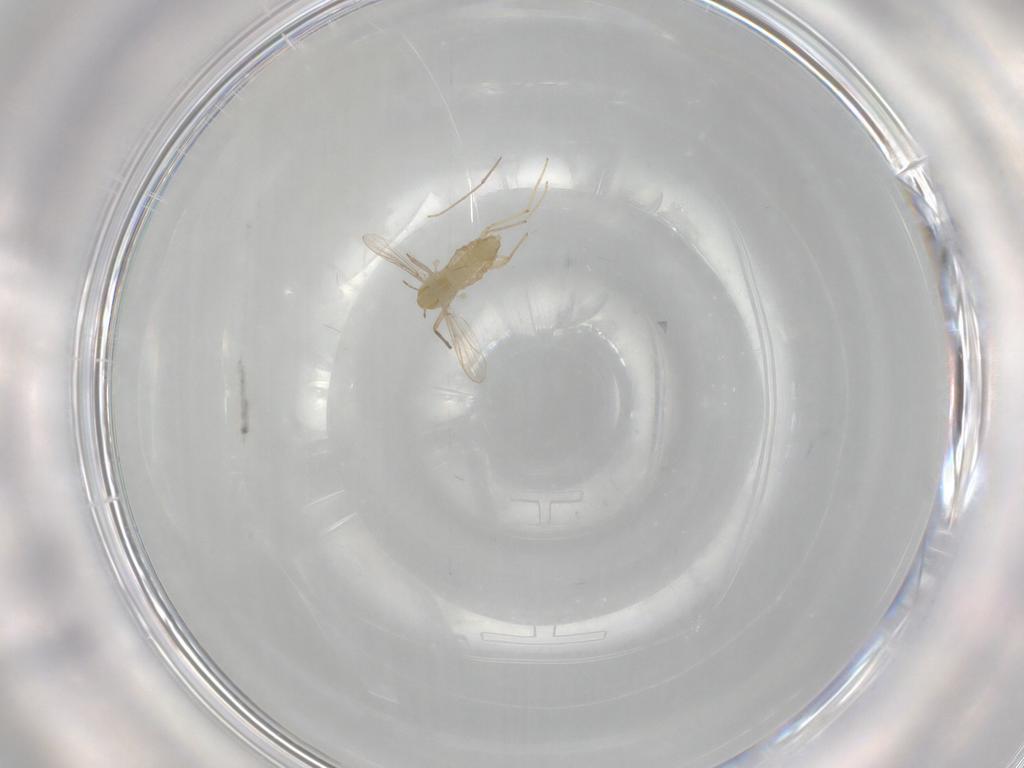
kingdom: Animalia
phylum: Arthropoda
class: Insecta
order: Diptera
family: Chironomidae
